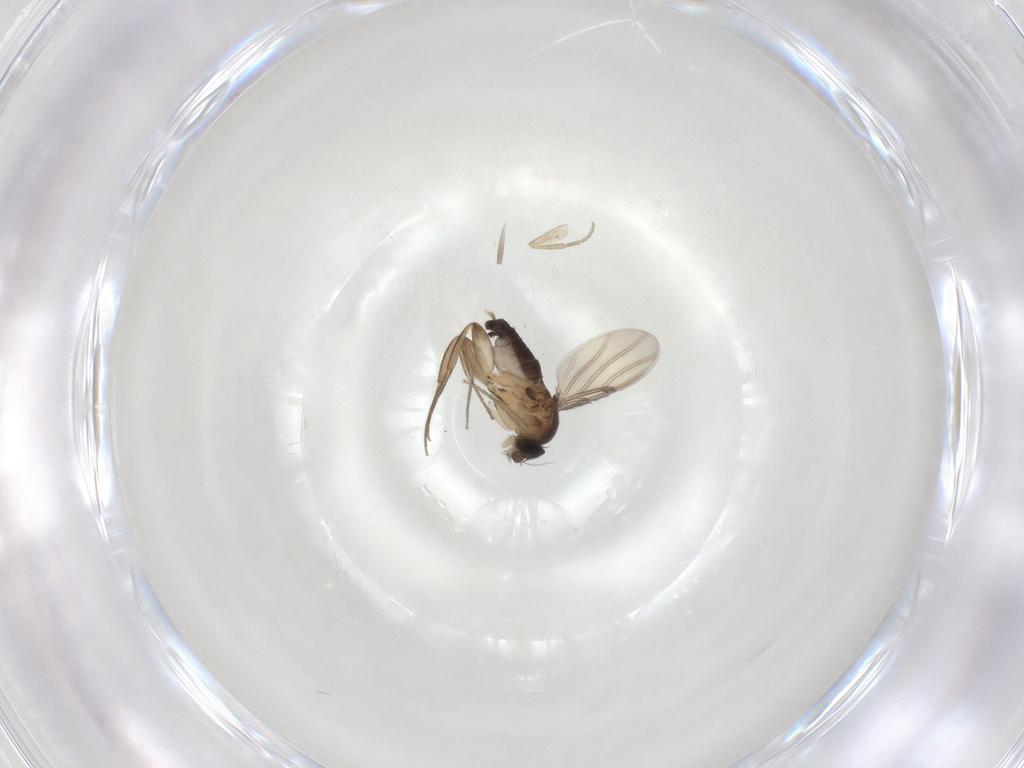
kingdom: Animalia
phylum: Arthropoda
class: Insecta
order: Diptera
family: Phoridae
